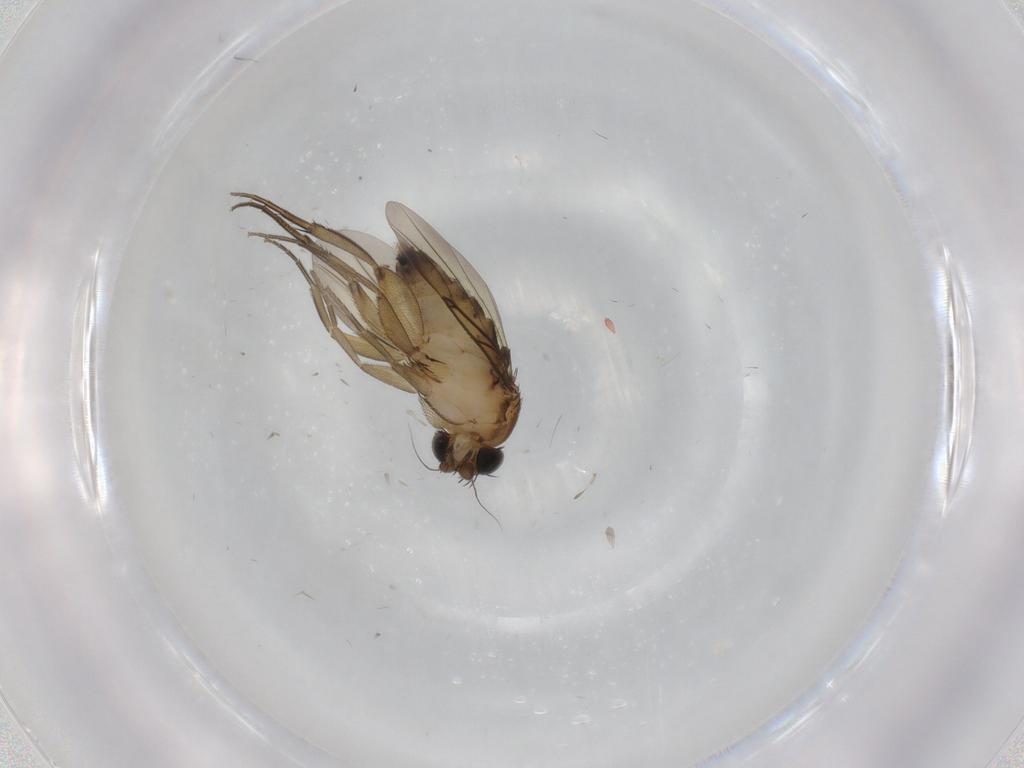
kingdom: Animalia
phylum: Arthropoda
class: Insecta
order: Diptera
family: Phoridae
